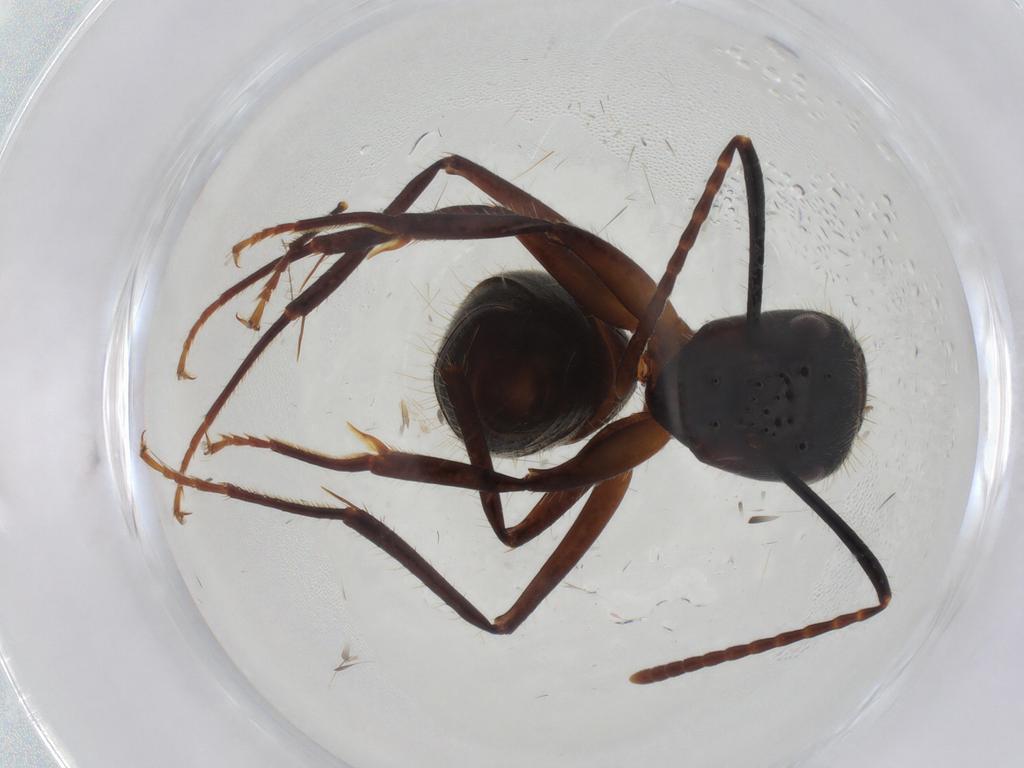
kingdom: Animalia
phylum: Arthropoda
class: Insecta
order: Hymenoptera
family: Formicidae
